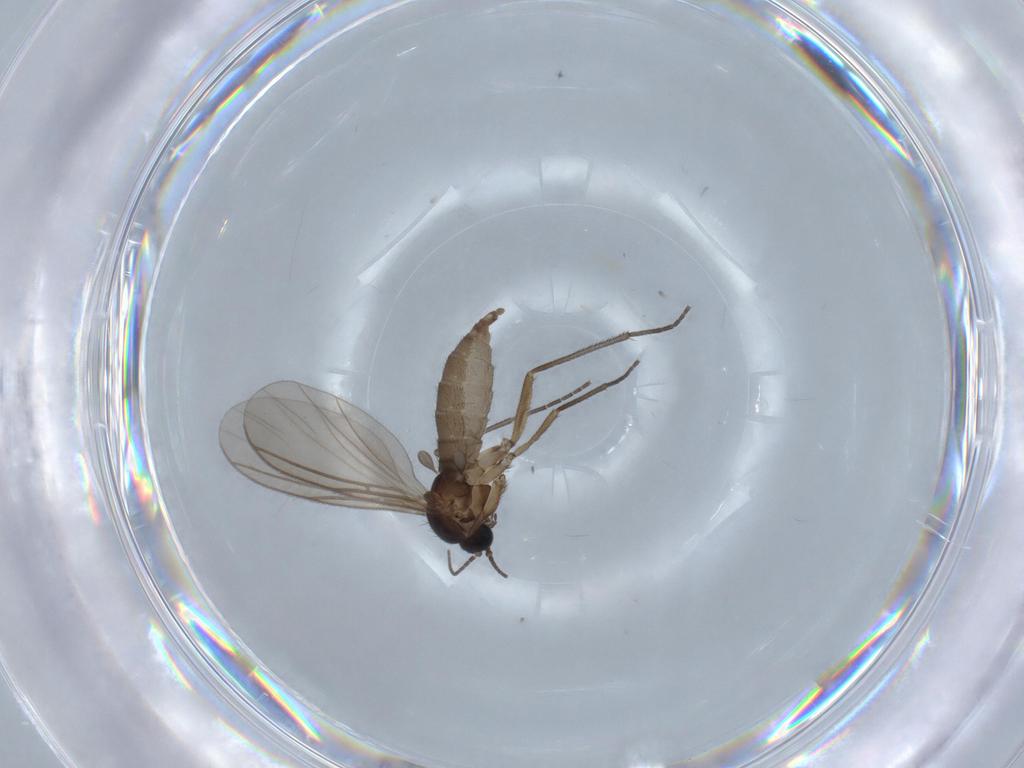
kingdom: Animalia
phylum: Arthropoda
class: Insecta
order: Diptera
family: Sciaridae
